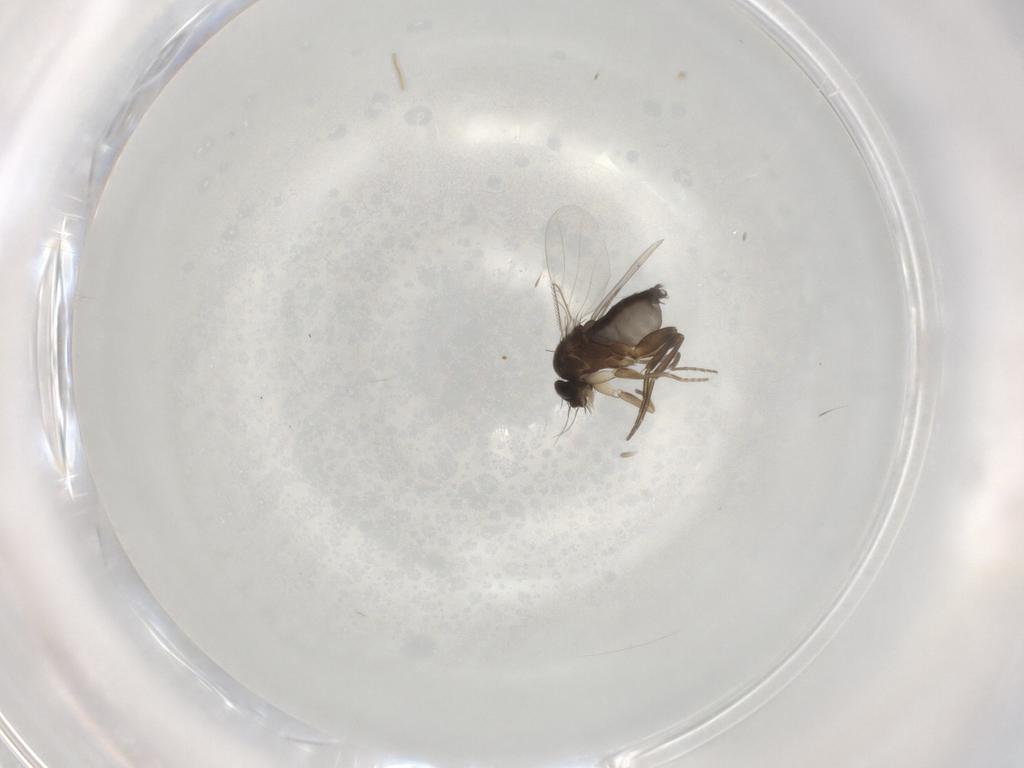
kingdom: Animalia
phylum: Arthropoda
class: Insecta
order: Diptera
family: Phoridae
